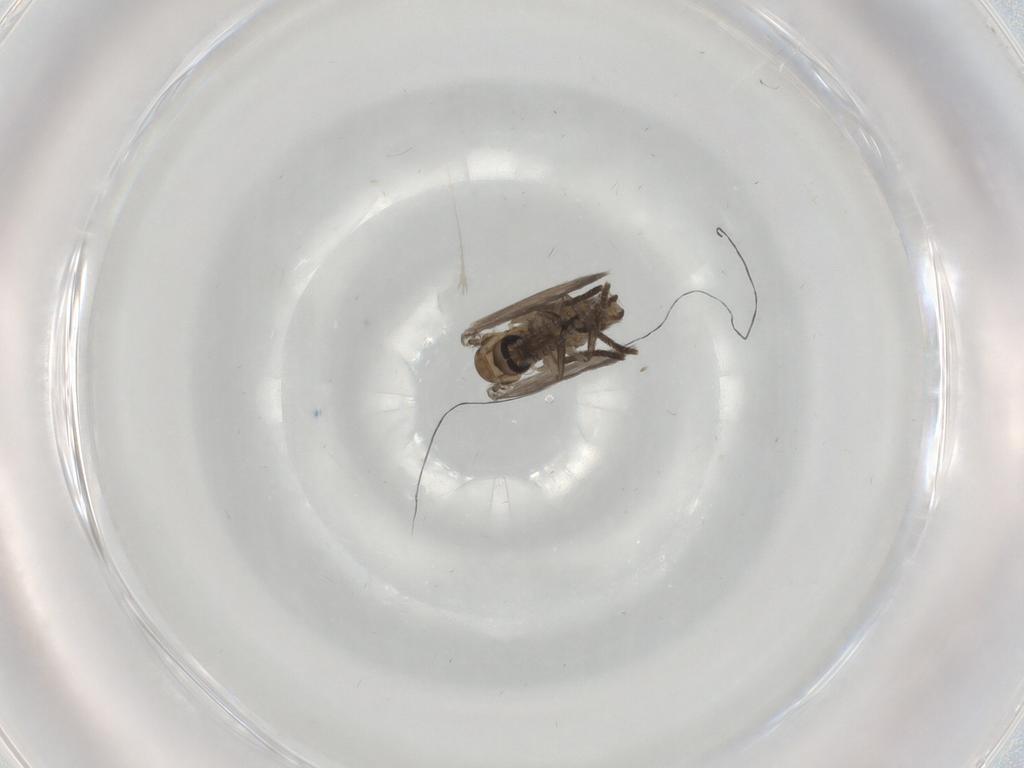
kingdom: Animalia
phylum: Arthropoda
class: Insecta
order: Diptera
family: Psychodidae
